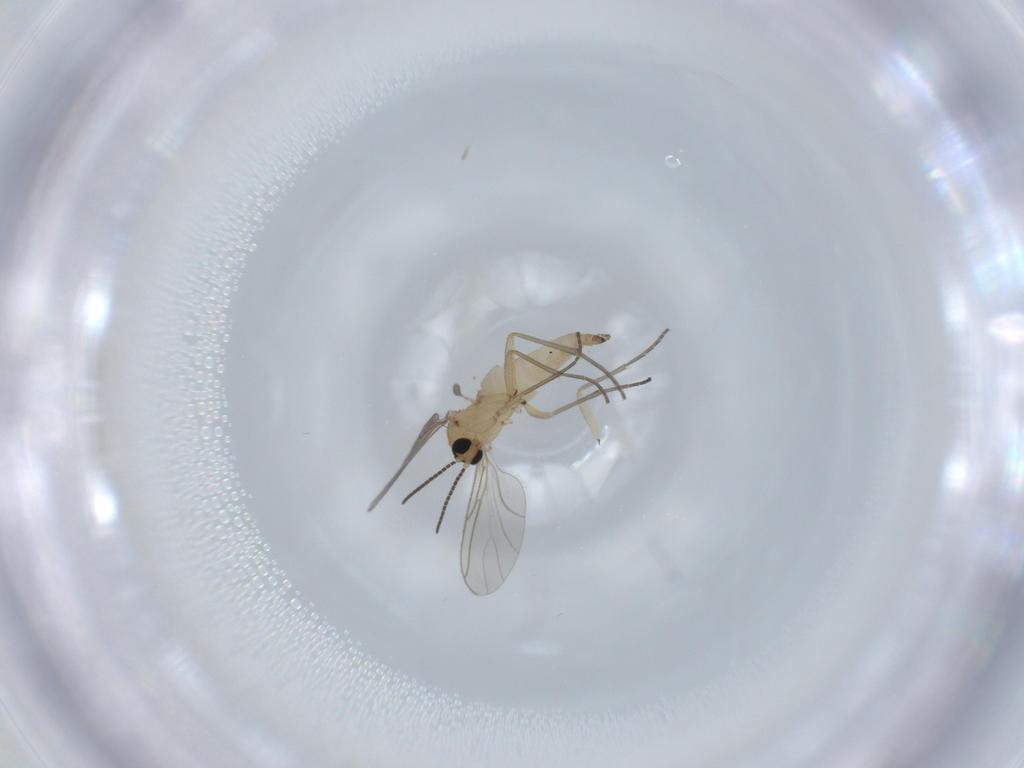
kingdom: Animalia
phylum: Arthropoda
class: Insecta
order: Diptera
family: Sciaridae
